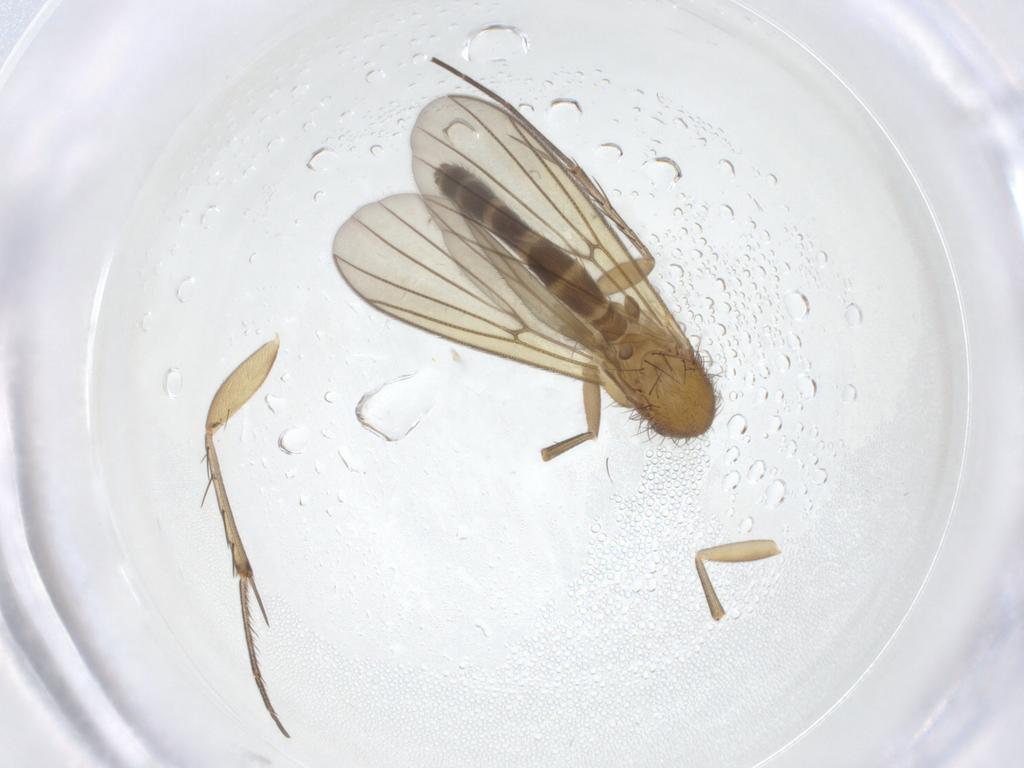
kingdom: Animalia
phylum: Arthropoda
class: Insecta
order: Diptera
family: Mycetophilidae
